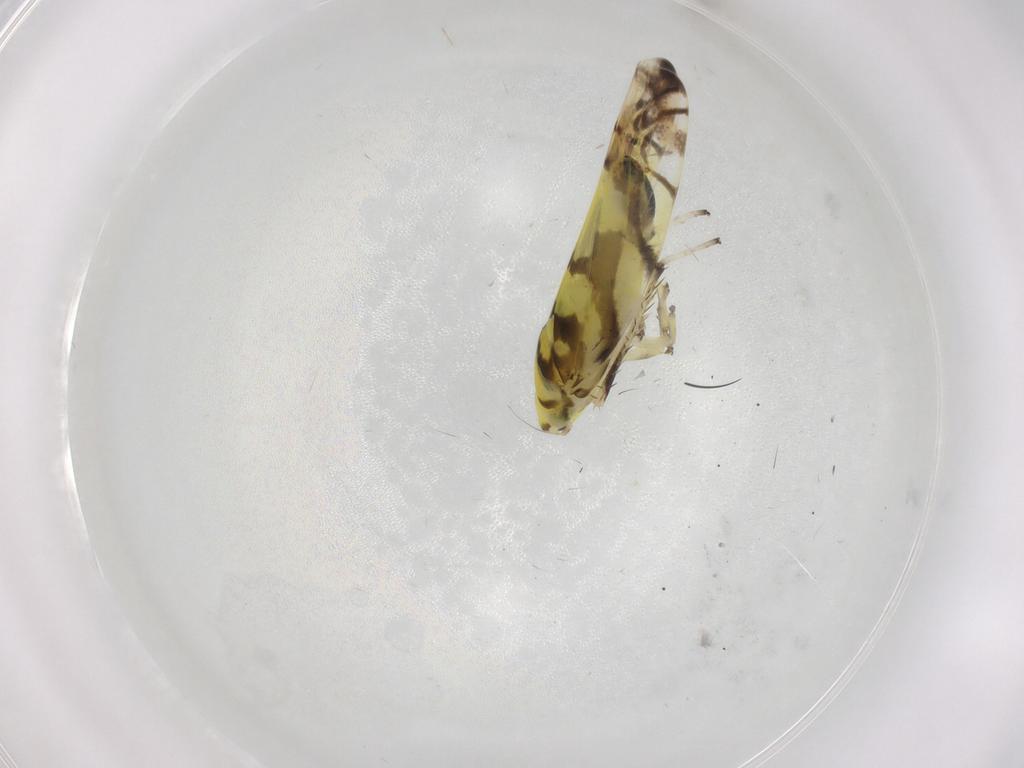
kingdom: Animalia
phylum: Arthropoda
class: Insecta
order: Hemiptera
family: Cicadellidae
